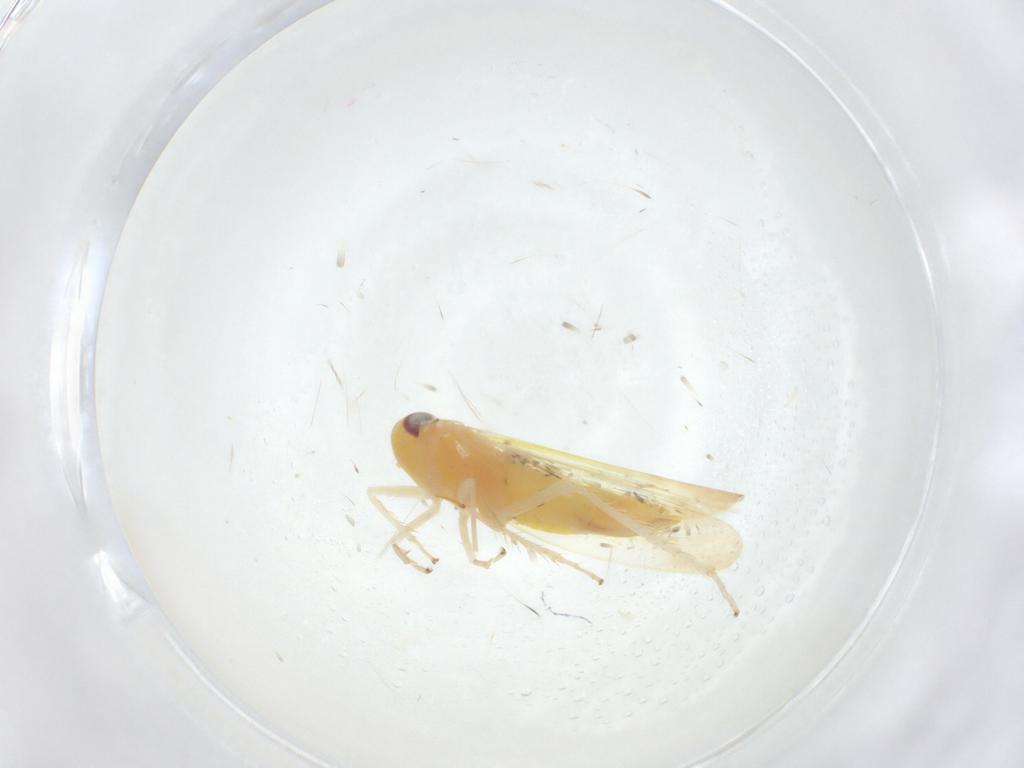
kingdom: Animalia
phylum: Arthropoda
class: Insecta
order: Hemiptera
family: Cicadellidae
